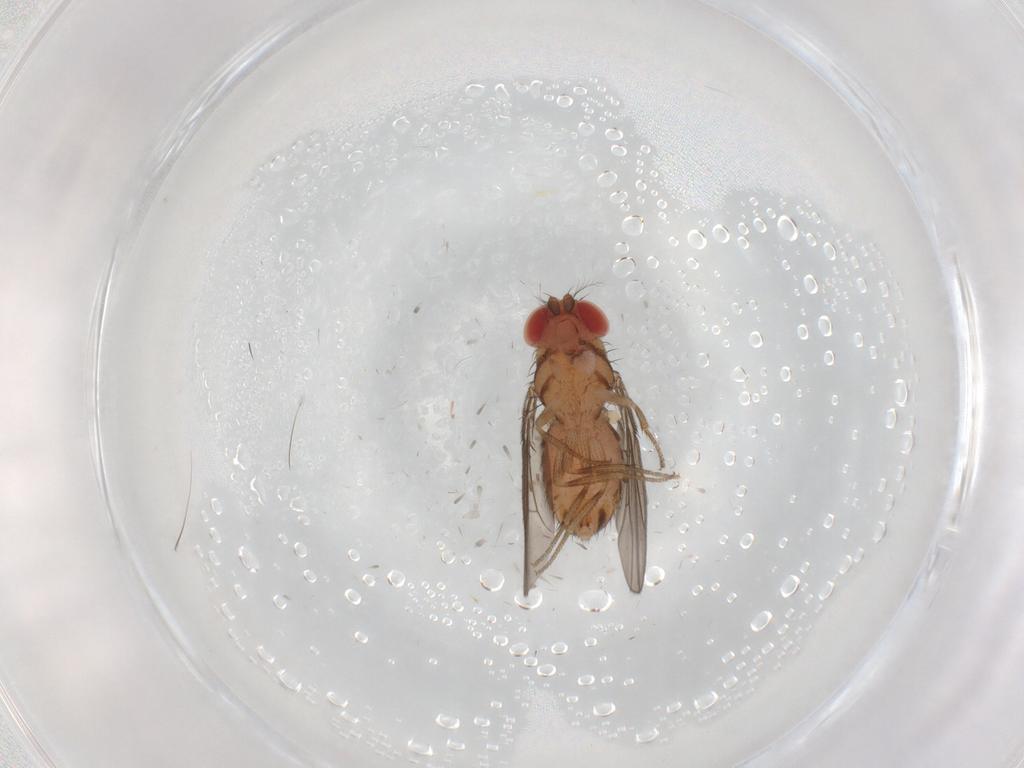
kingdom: Animalia
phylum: Arthropoda
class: Insecta
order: Diptera
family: Drosophilidae
